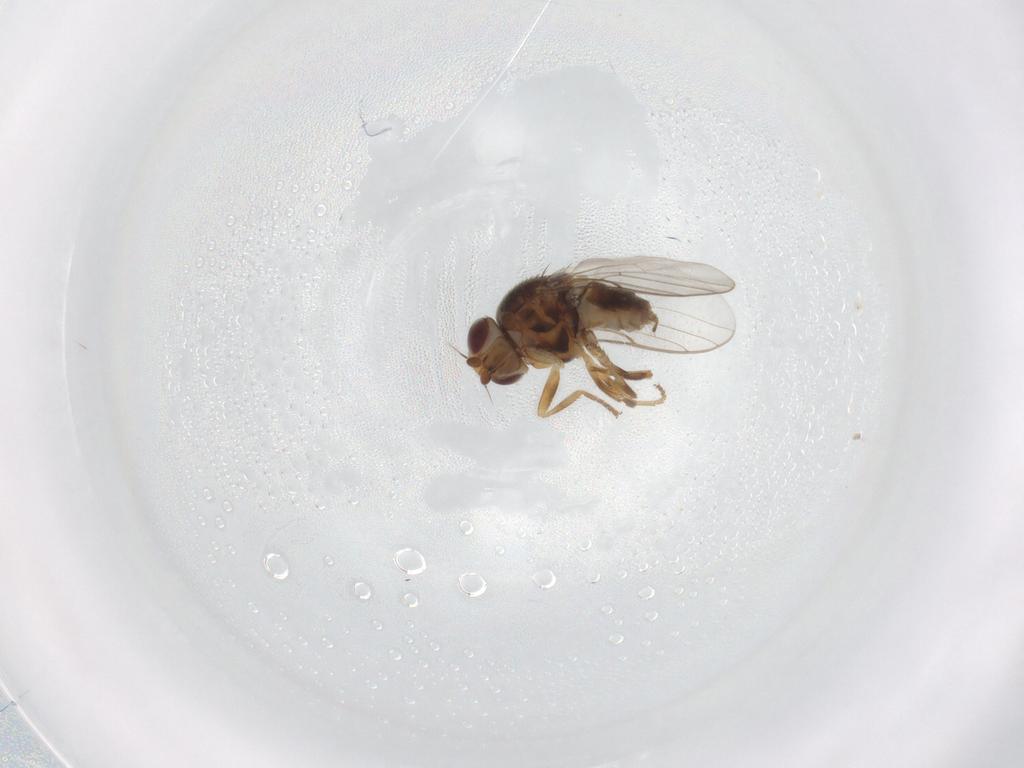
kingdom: Animalia
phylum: Arthropoda
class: Insecta
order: Diptera
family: Chloropidae
